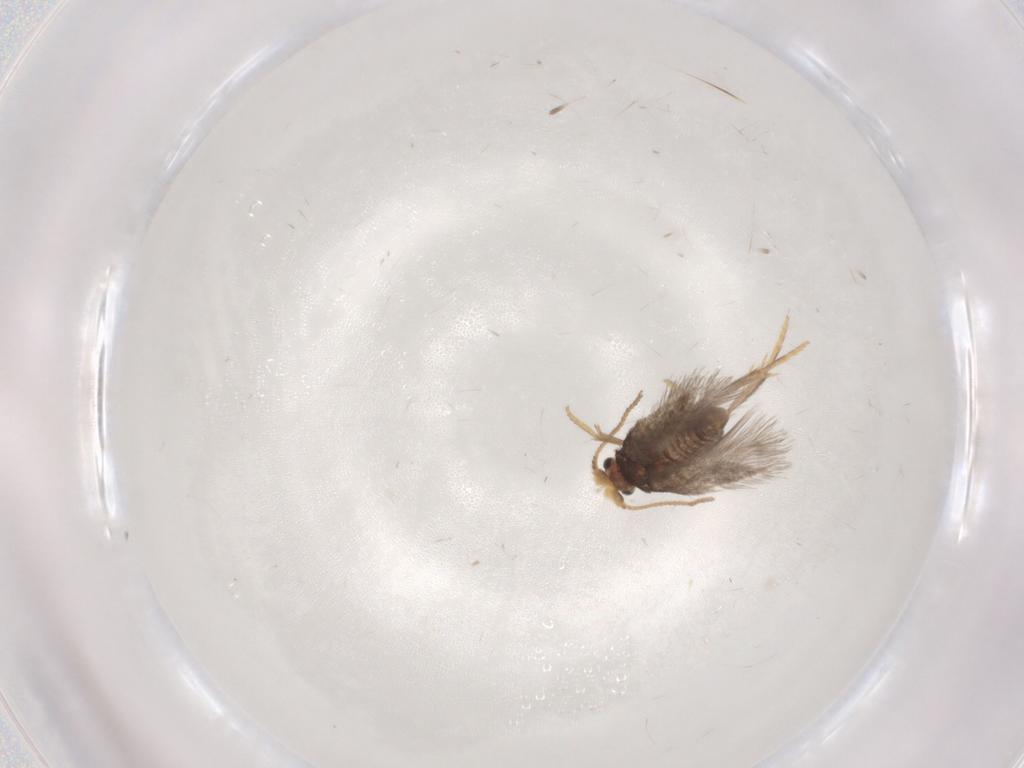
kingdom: Animalia
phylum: Arthropoda
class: Insecta
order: Lepidoptera
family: Nepticulidae
